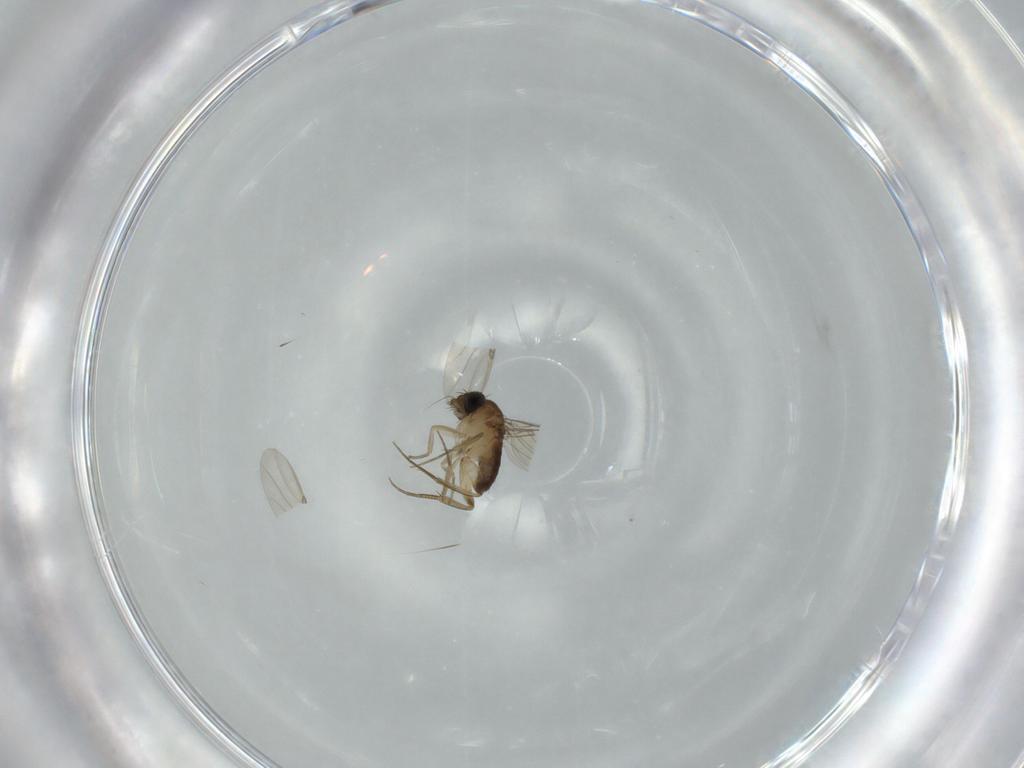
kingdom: Animalia
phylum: Arthropoda
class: Insecta
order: Diptera
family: Phoridae
